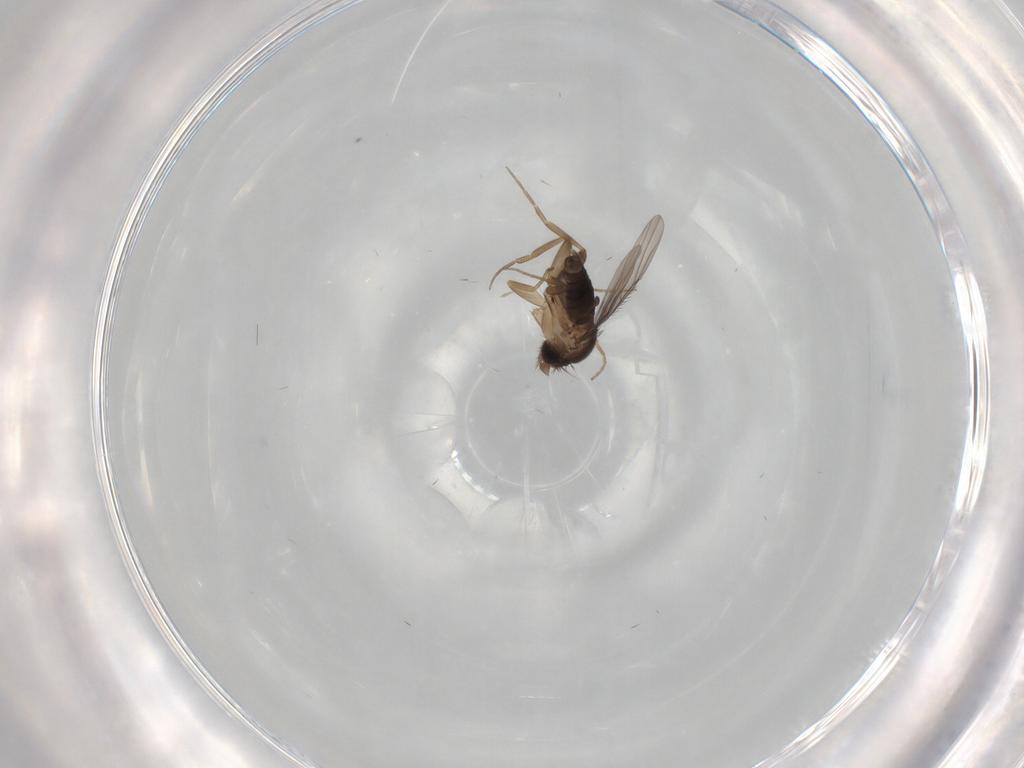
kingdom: Animalia
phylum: Arthropoda
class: Insecta
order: Diptera
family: Phoridae
